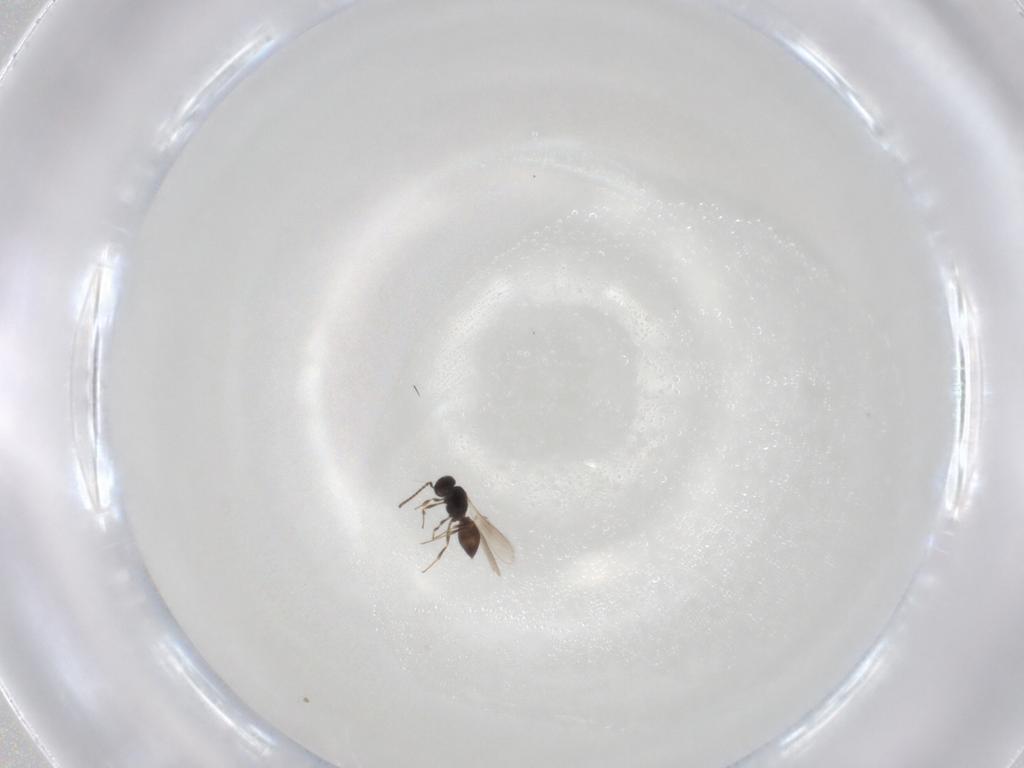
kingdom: Animalia
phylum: Arthropoda
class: Insecta
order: Hymenoptera
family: Scelionidae
